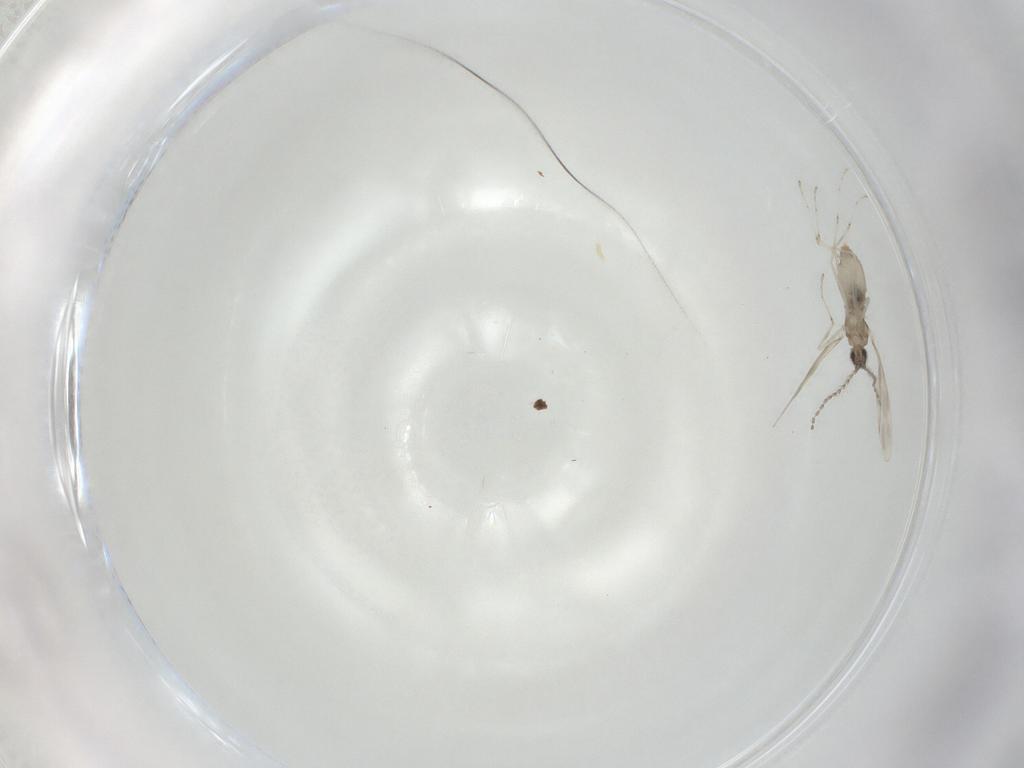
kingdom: Animalia
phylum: Arthropoda
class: Insecta
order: Diptera
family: Cecidomyiidae
